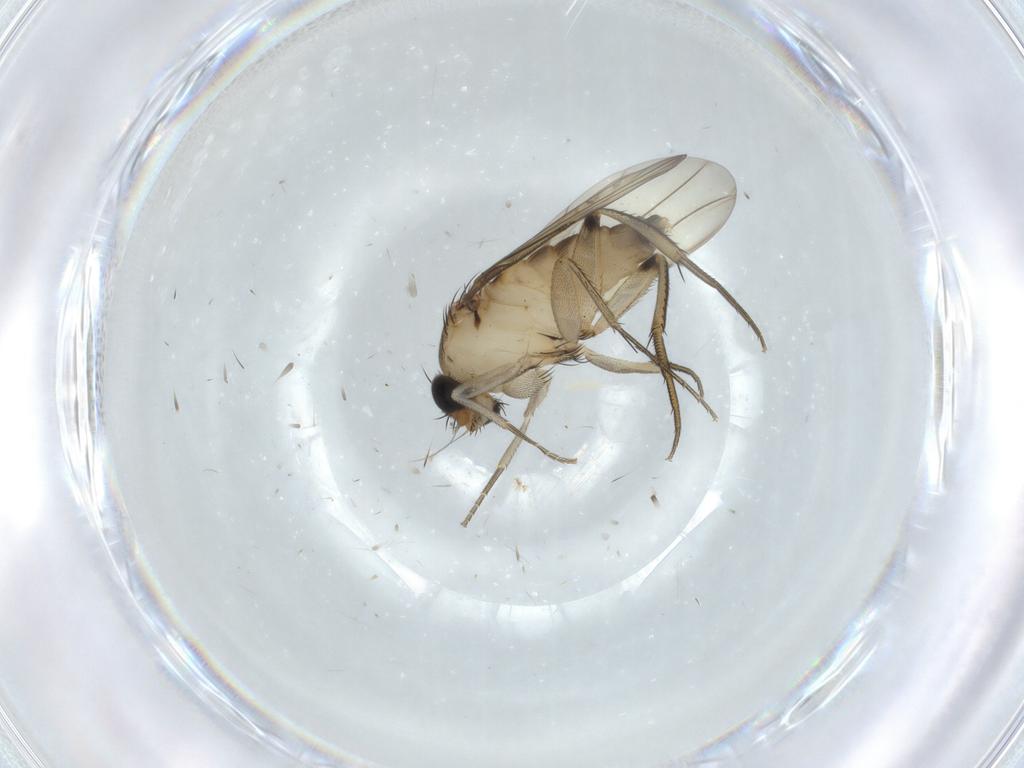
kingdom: Animalia
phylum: Arthropoda
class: Insecta
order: Diptera
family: Phoridae
